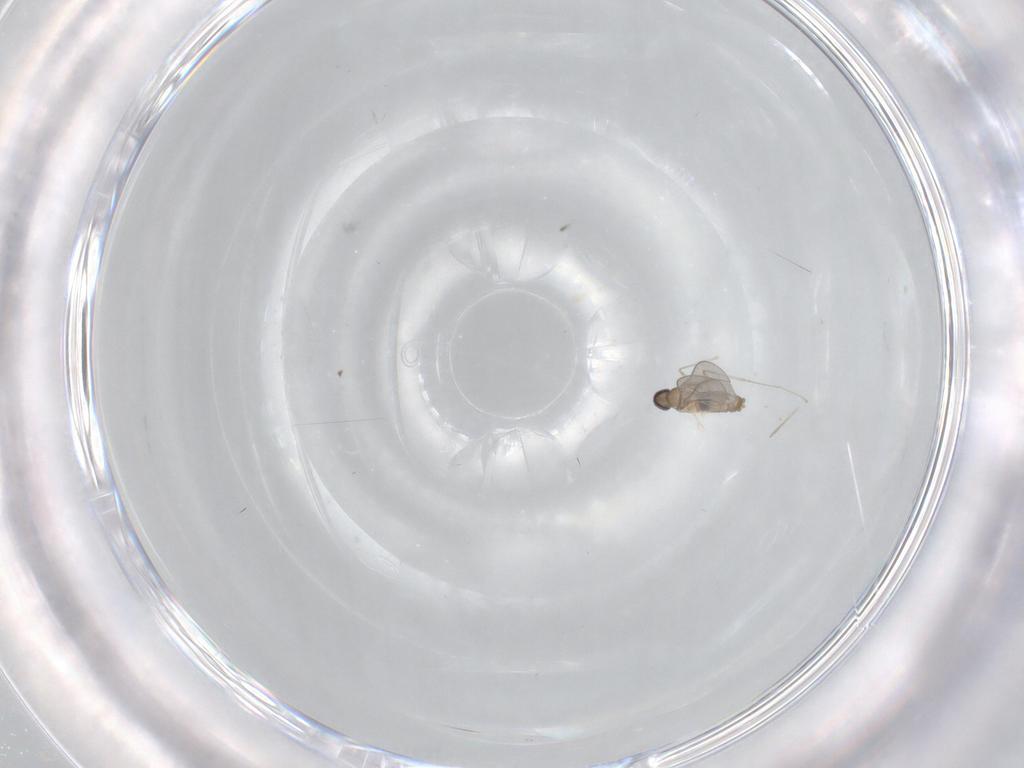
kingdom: Animalia
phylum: Arthropoda
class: Insecta
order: Diptera
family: Cecidomyiidae
